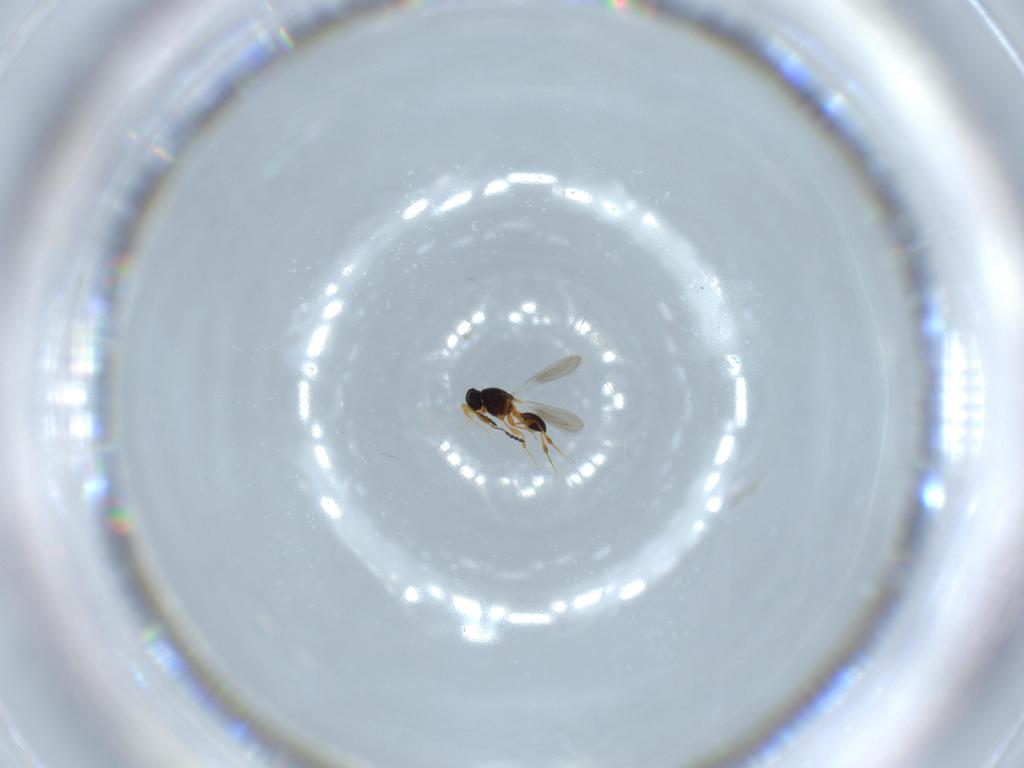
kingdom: Animalia
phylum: Arthropoda
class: Insecta
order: Hymenoptera
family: Platygastridae
